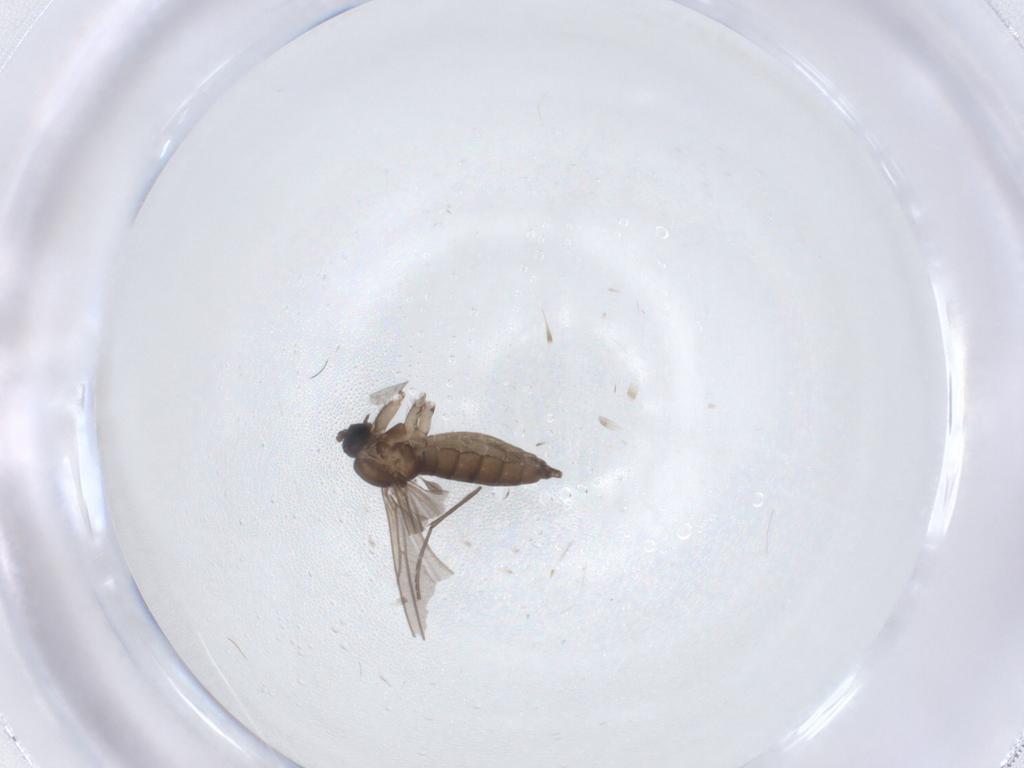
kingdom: Animalia
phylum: Arthropoda
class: Insecta
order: Diptera
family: Sciaridae
